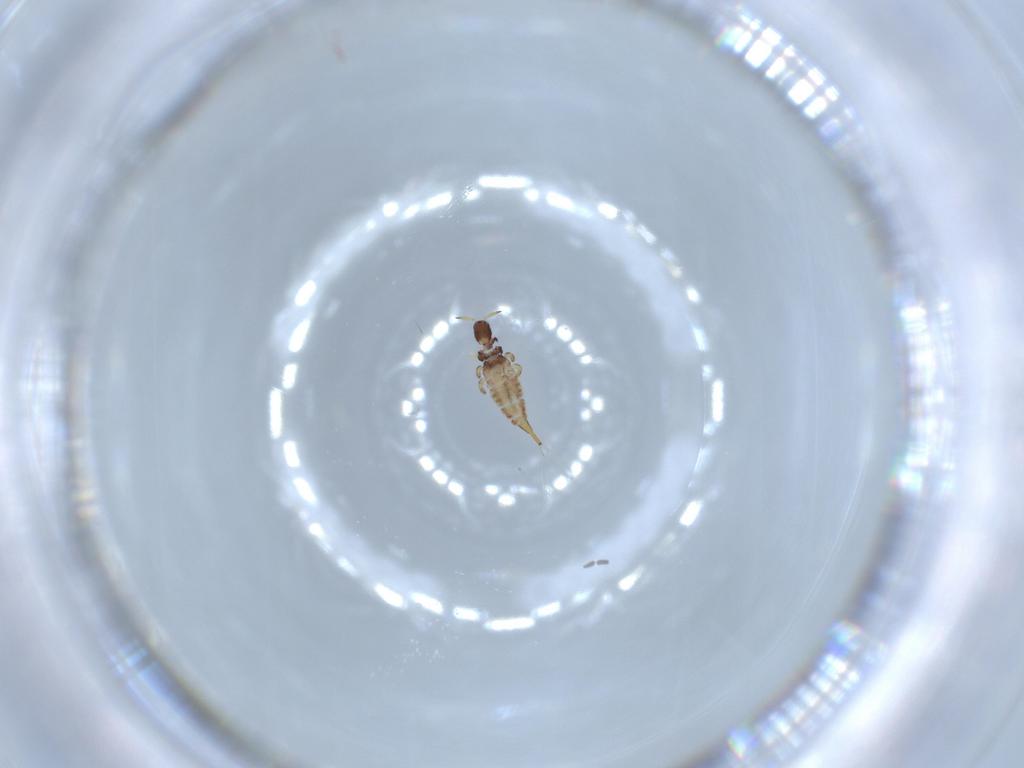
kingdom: Animalia
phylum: Arthropoda
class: Insecta
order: Diptera
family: Sciaridae
